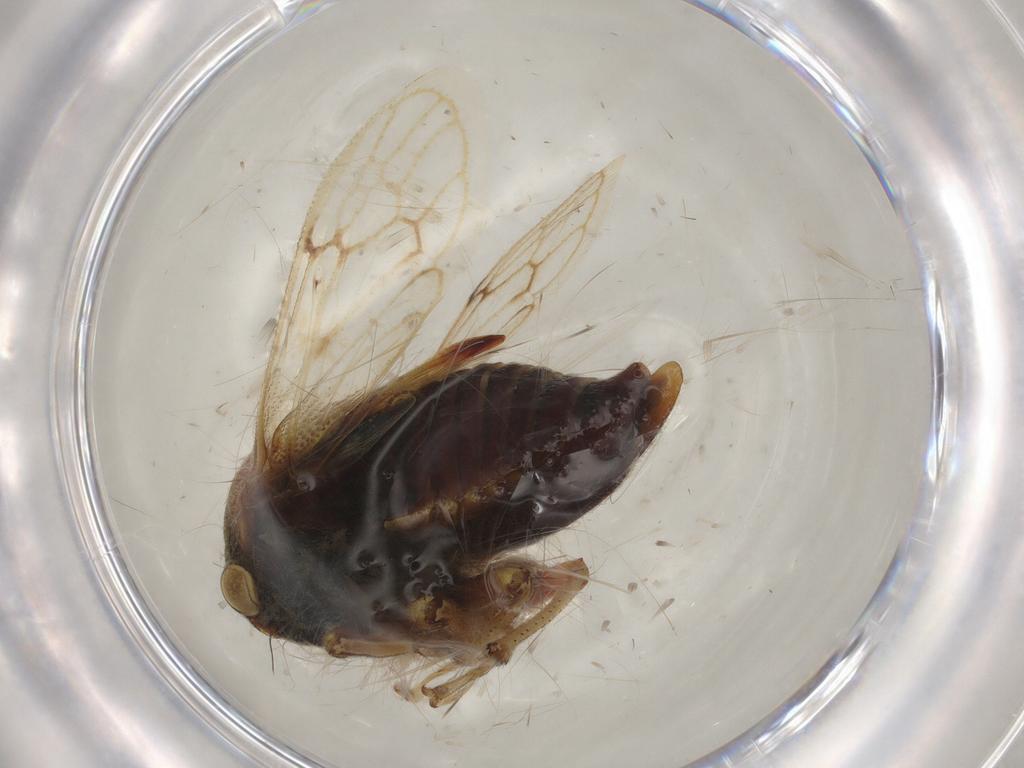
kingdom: Animalia
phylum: Arthropoda
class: Insecta
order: Hemiptera
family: Membracidae
